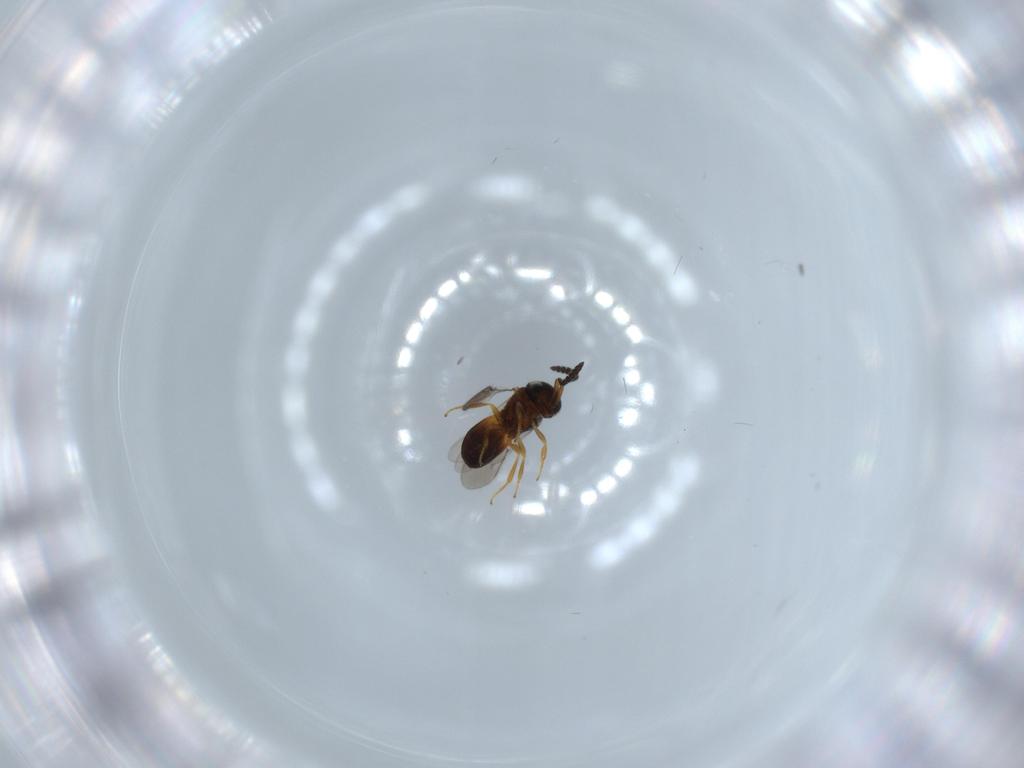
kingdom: Animalia
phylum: Arthropoda
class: Insecta
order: Hymenoptera
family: Scelionidae
